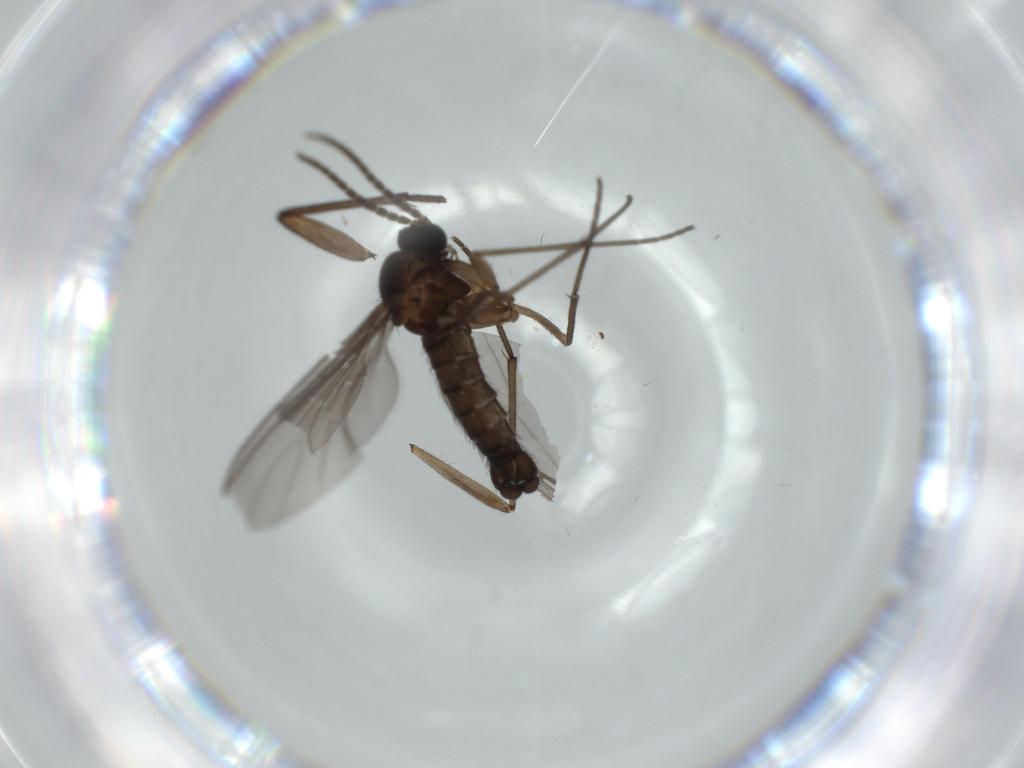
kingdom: Animalia
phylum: Arthropoda
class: Insecta
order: Diptera
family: Sciaridae
